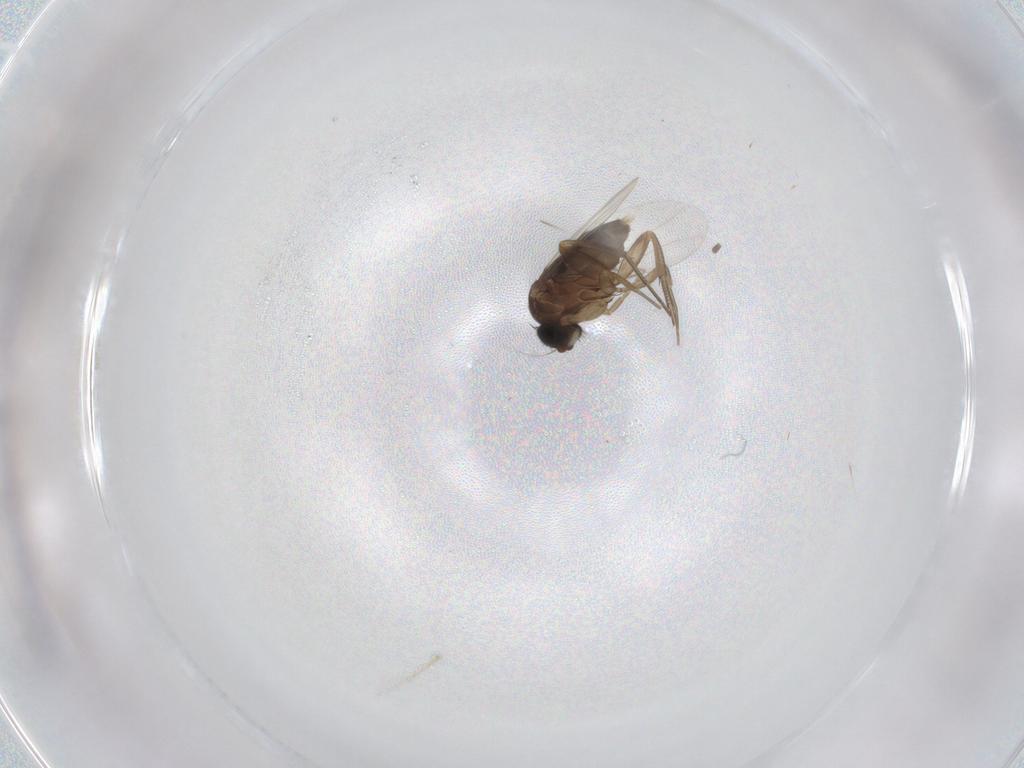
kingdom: Animalia
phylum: Arthropoda
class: Insecta
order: Diptera
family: Phoridae
